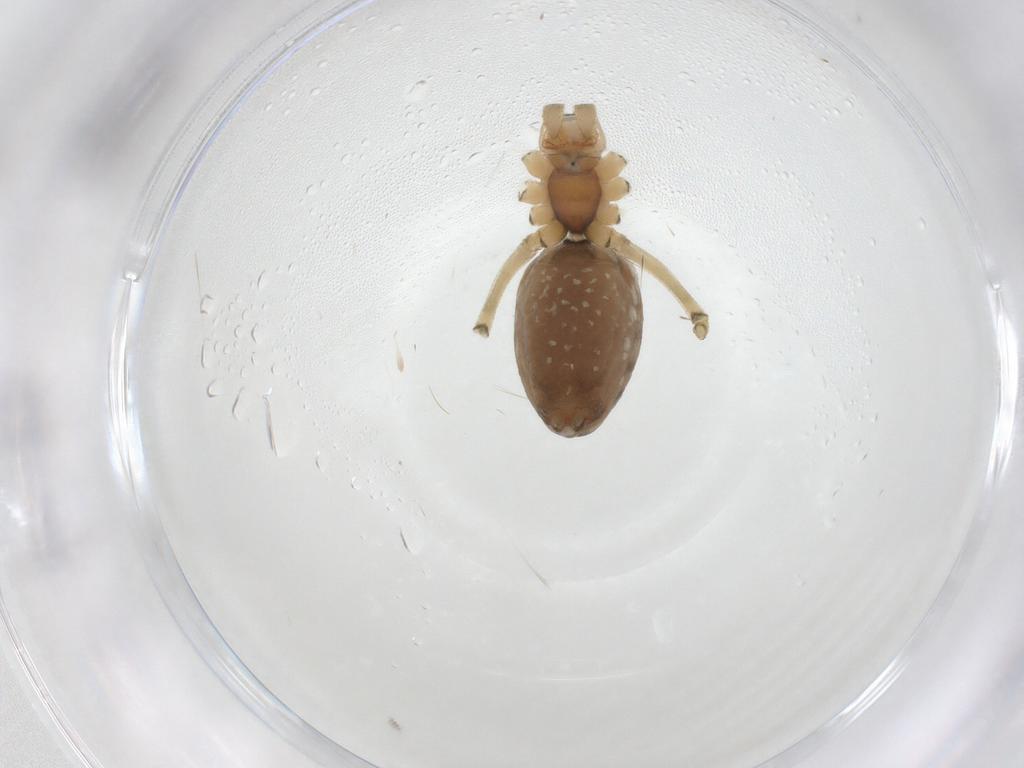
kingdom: Animalia
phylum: Arthropoda
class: Arachnida
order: Araneae
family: Linyphiidae
